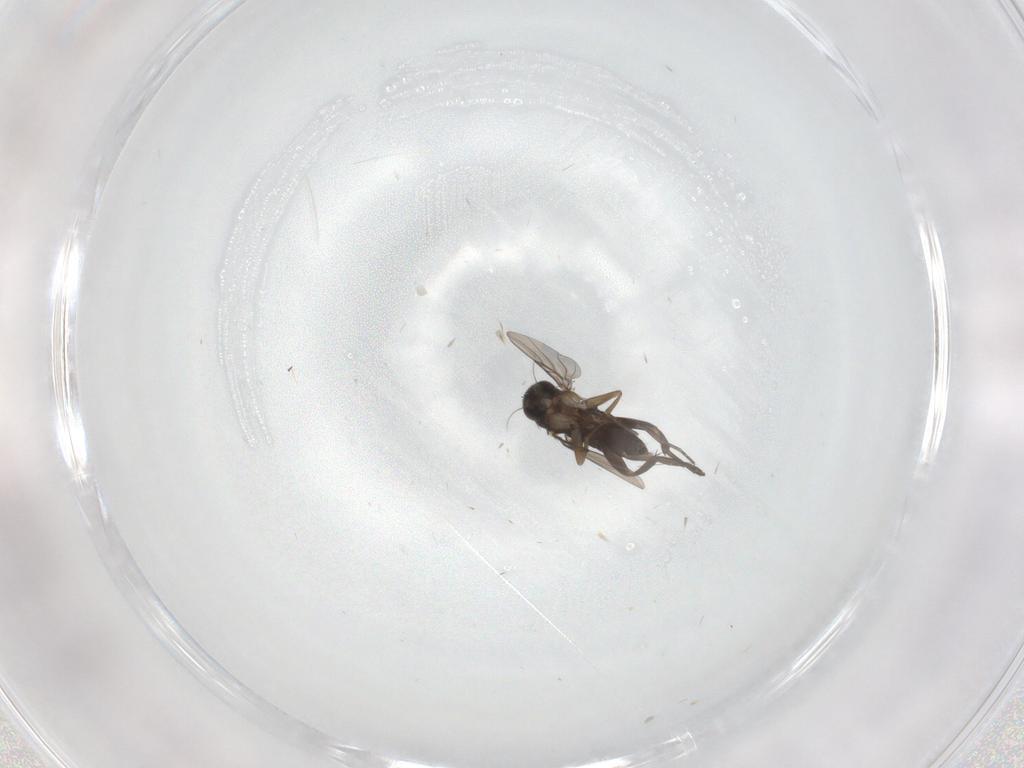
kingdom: Animalia
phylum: Arthropoda
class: Insecta
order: Diptera
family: Phoridae
